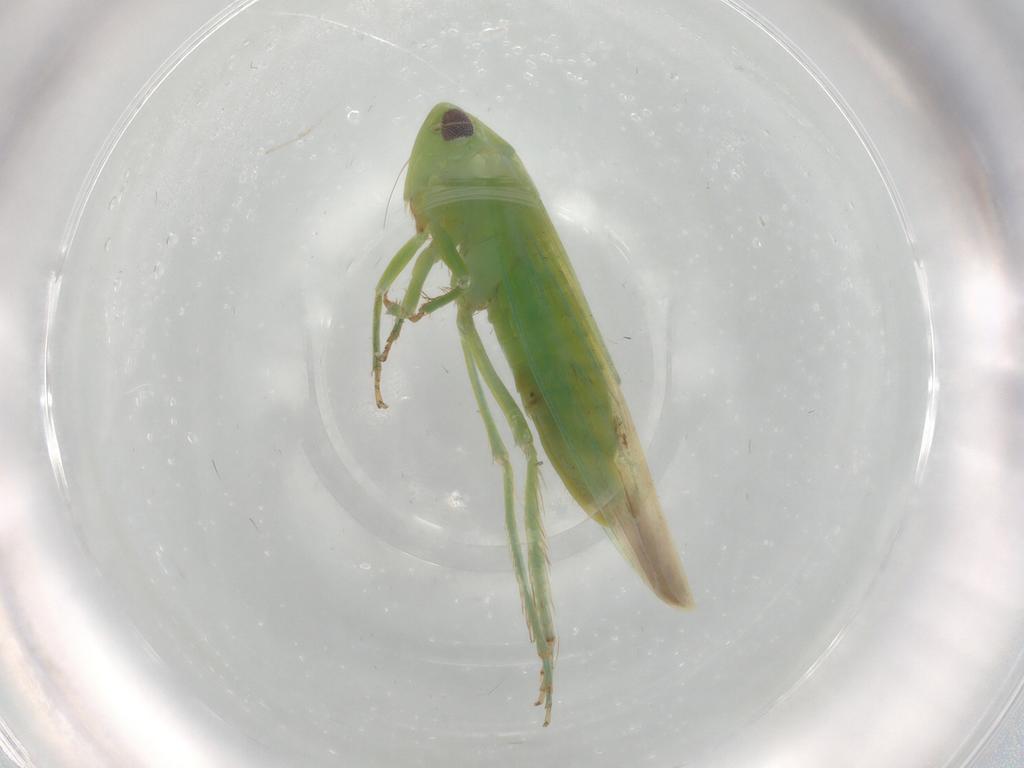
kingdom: Animalia
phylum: Arthropoda
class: Insecta
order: Hemiptera
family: Cicadellidae
